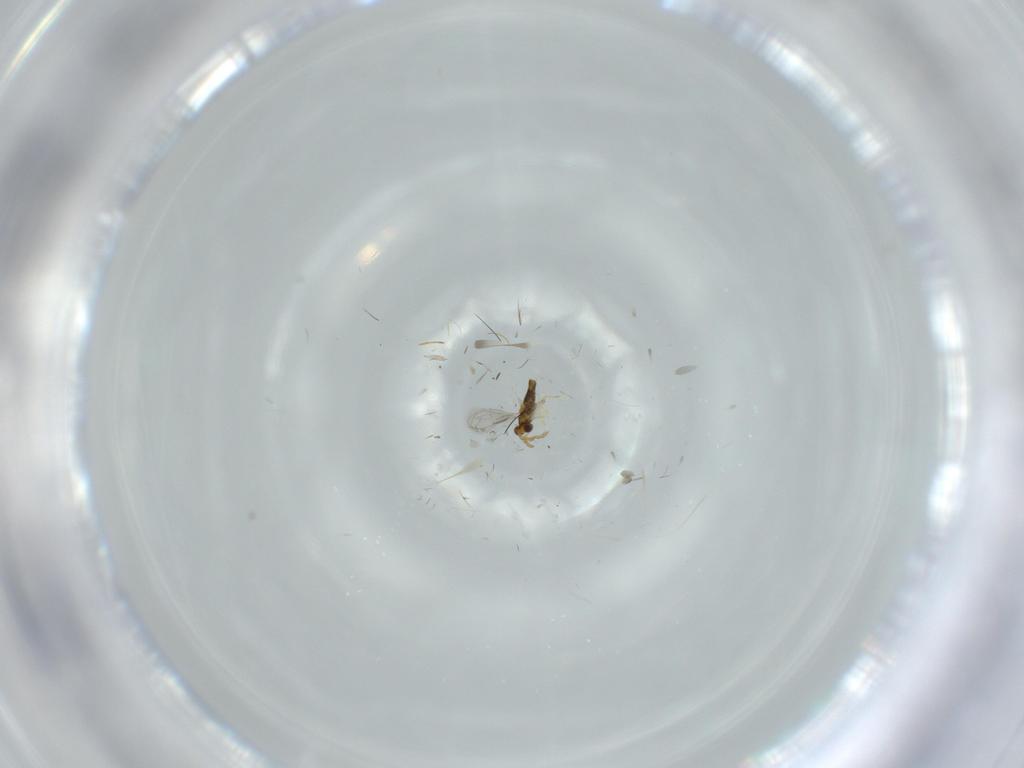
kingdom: Animalia
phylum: Arthropoda
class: Insecta
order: Hymenoptera
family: Aphelinidae
